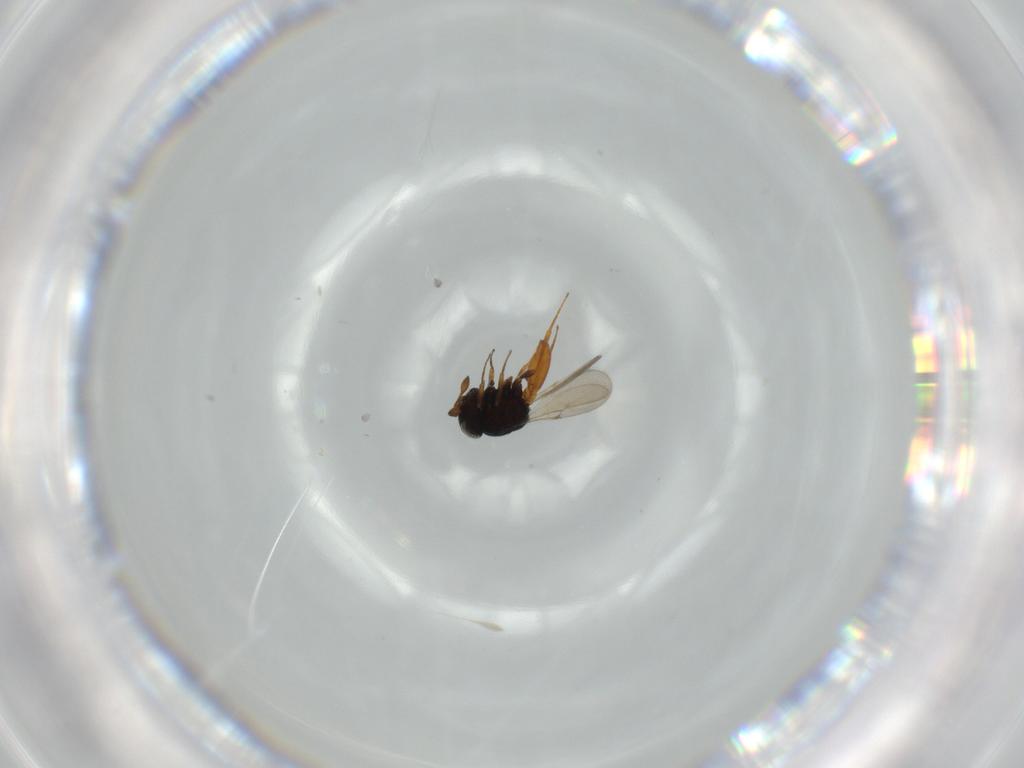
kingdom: Animalia
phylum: Arthropoda
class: Insecta
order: Hymenoptera
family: Scelionidae
